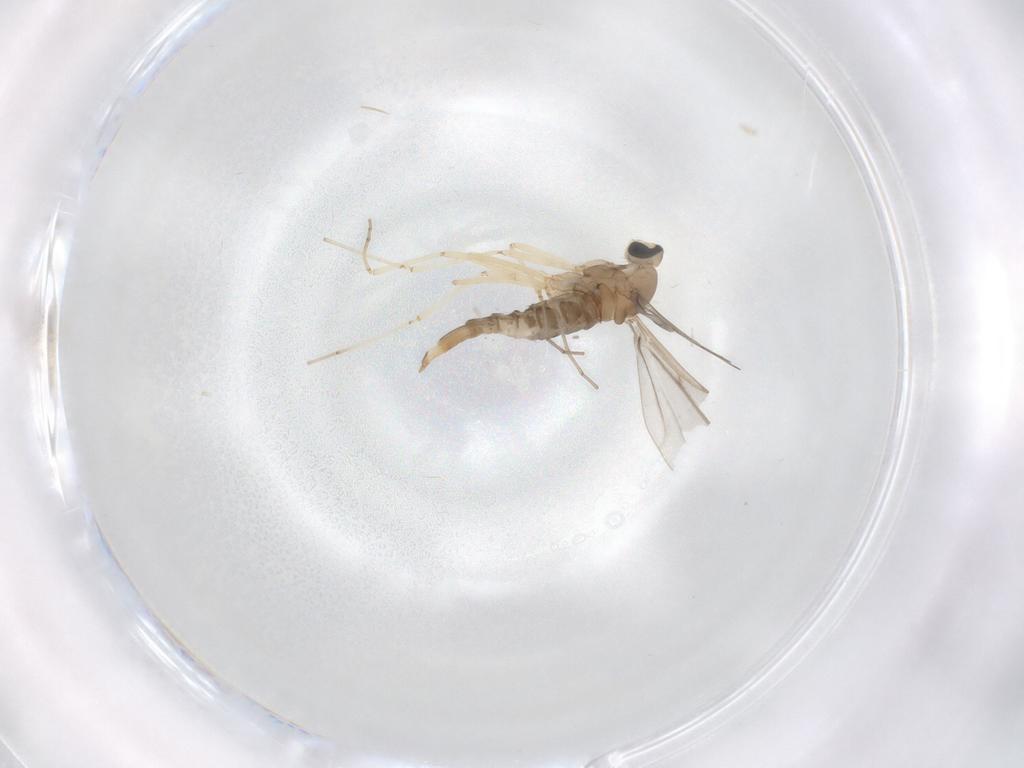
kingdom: Animalia
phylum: Arthropoda
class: Insecta
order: Diptera
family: Cecidomyiidae
